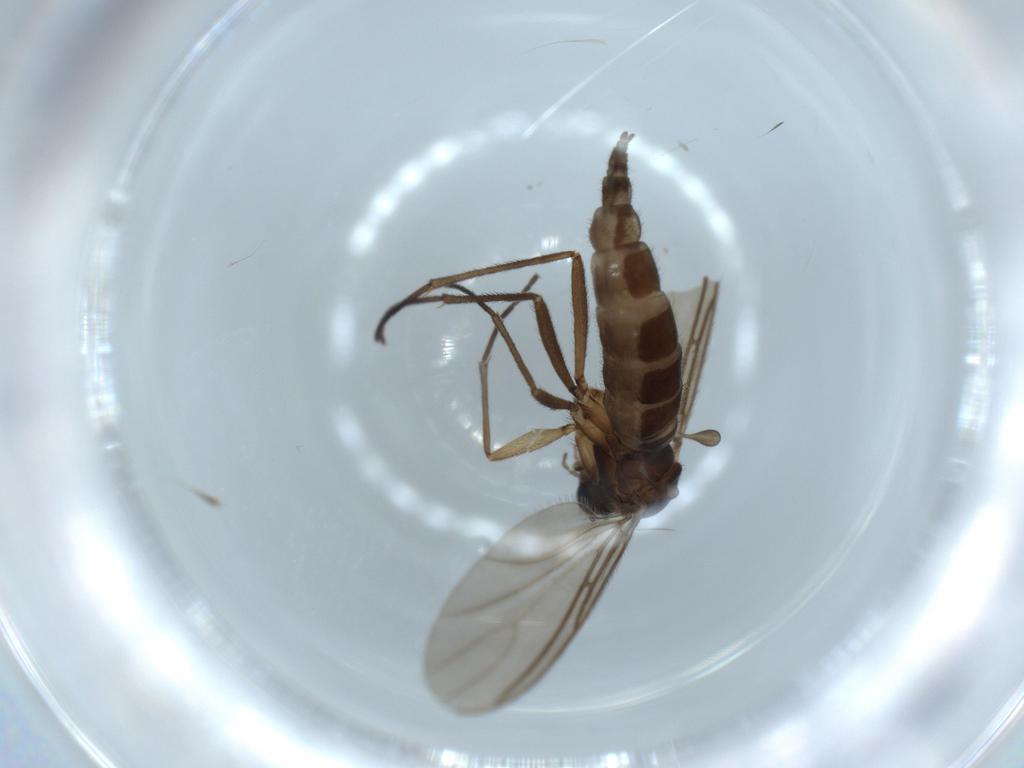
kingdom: Animalia
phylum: Arthropoda
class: Insecta
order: Diptera
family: Sciaridae
